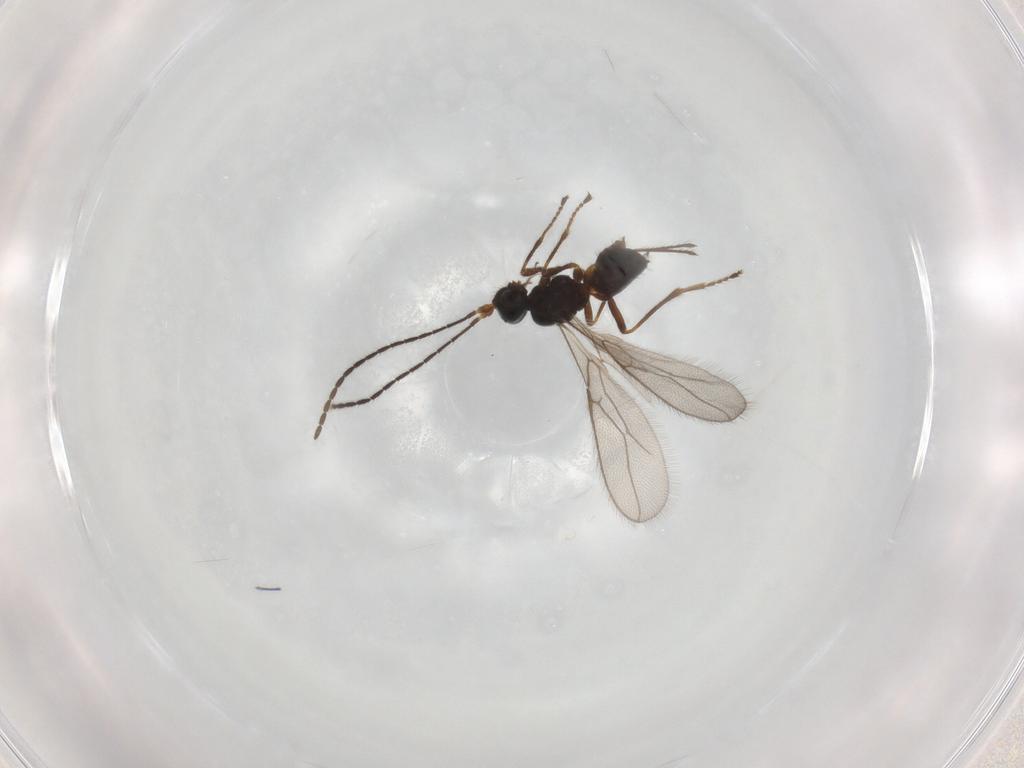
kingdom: Animalia
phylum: Arthropoda
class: Insecta
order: Hymenoptera
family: Braconidae
